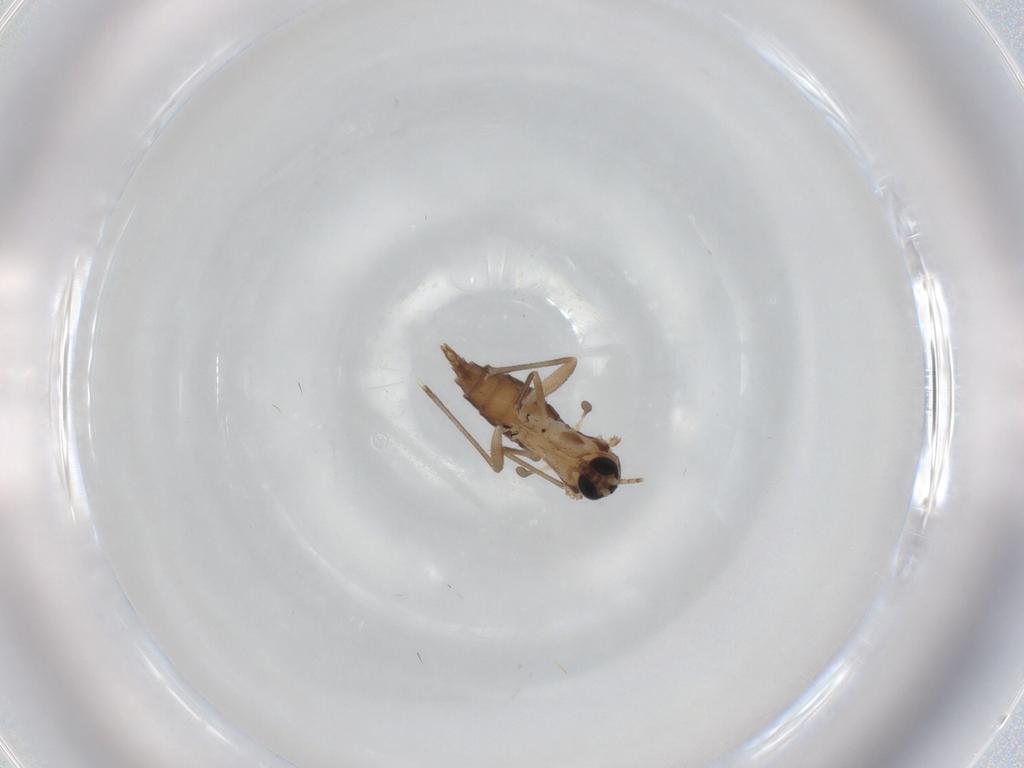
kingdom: Animalia
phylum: Arthropoda
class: Insecta
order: Diptera
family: Sciaridae
